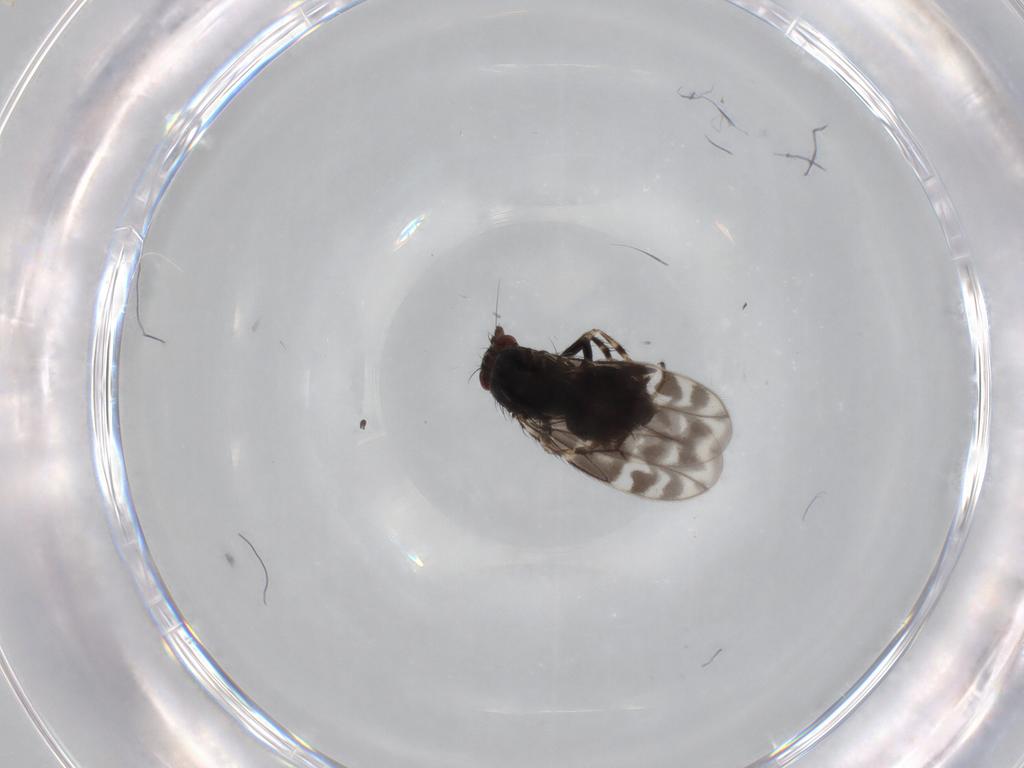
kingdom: Animalia
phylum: Arthropoda
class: Insecta
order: Diptera
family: Sphaeroceridae
